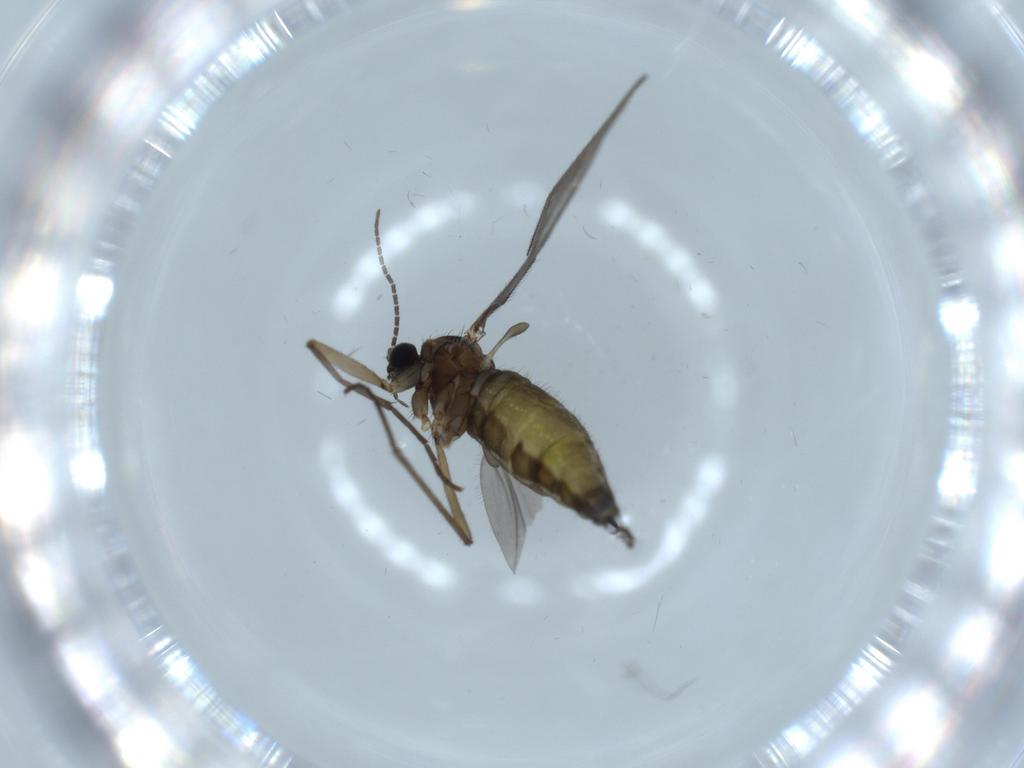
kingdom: Animalia
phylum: Arthropoda
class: Insecta
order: Diptera
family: Sciaridae
